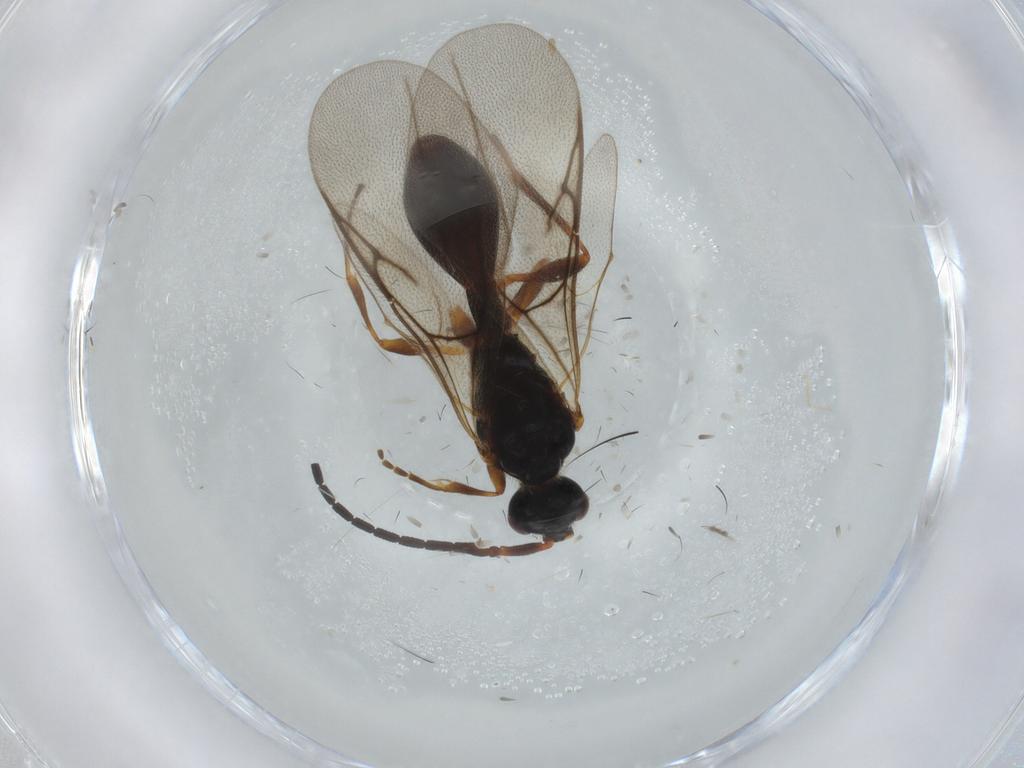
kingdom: Animalia
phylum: Arthropoda
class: Insecta
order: Hymenoptera
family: Diapriidae
